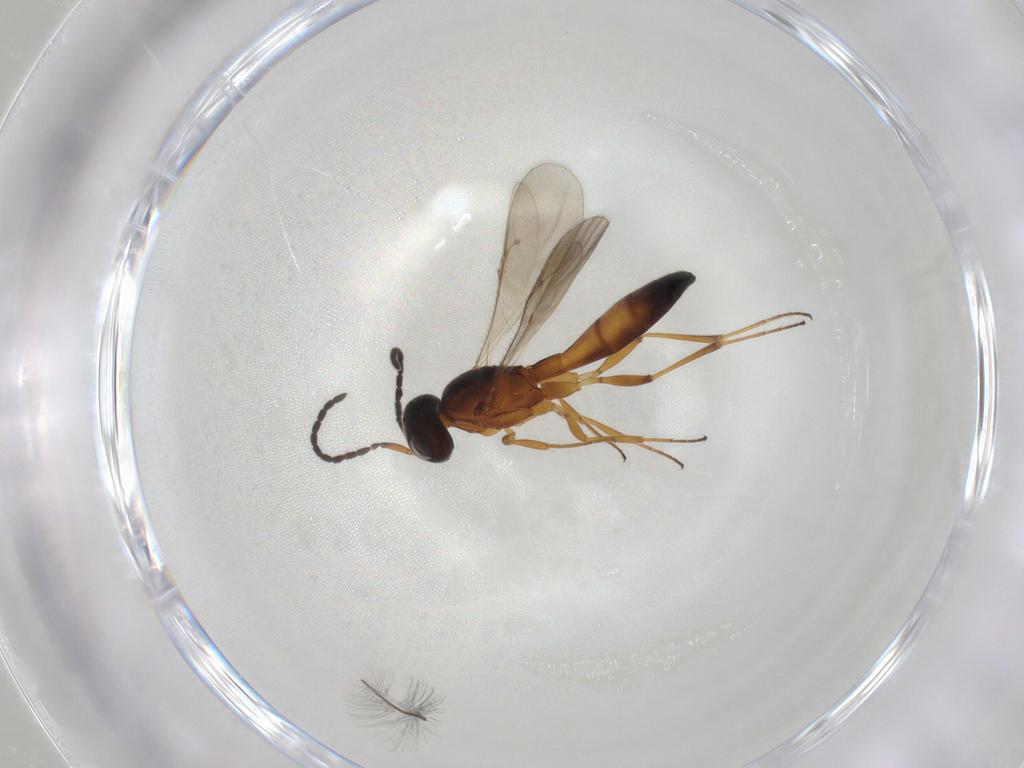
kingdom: Animalia
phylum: Arthropoda
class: Insecta
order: Hymenoptera
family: Scelionidae
